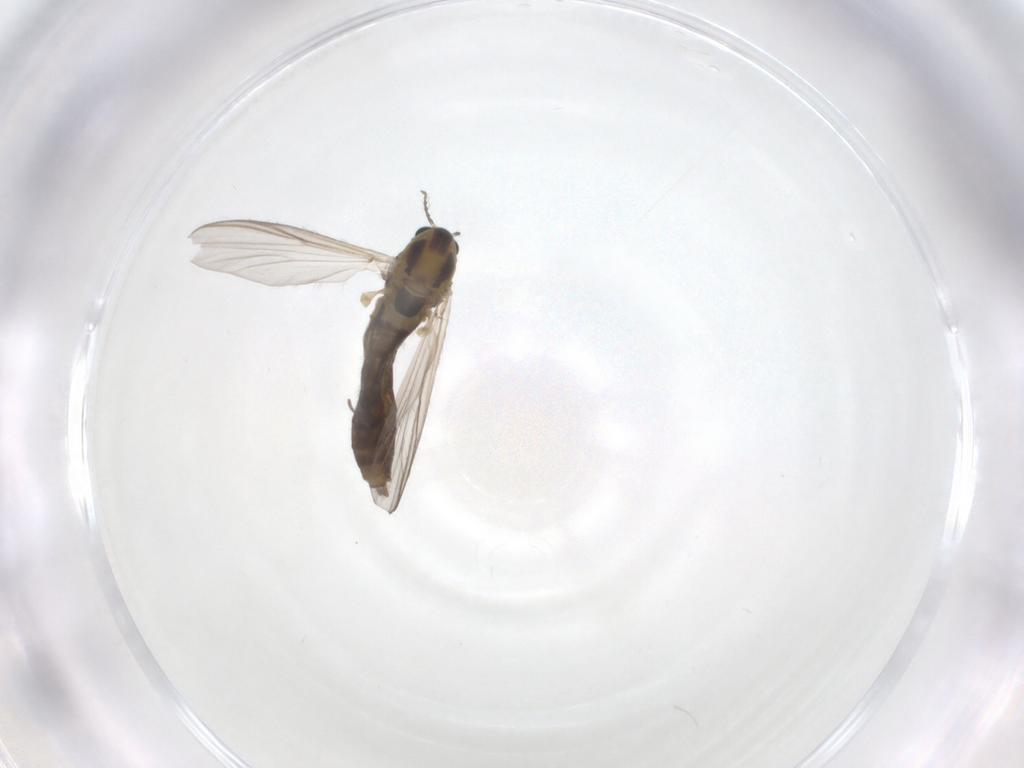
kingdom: Animalia
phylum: Arthropoda
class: Insecta
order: Diptera
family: Chironomidae
